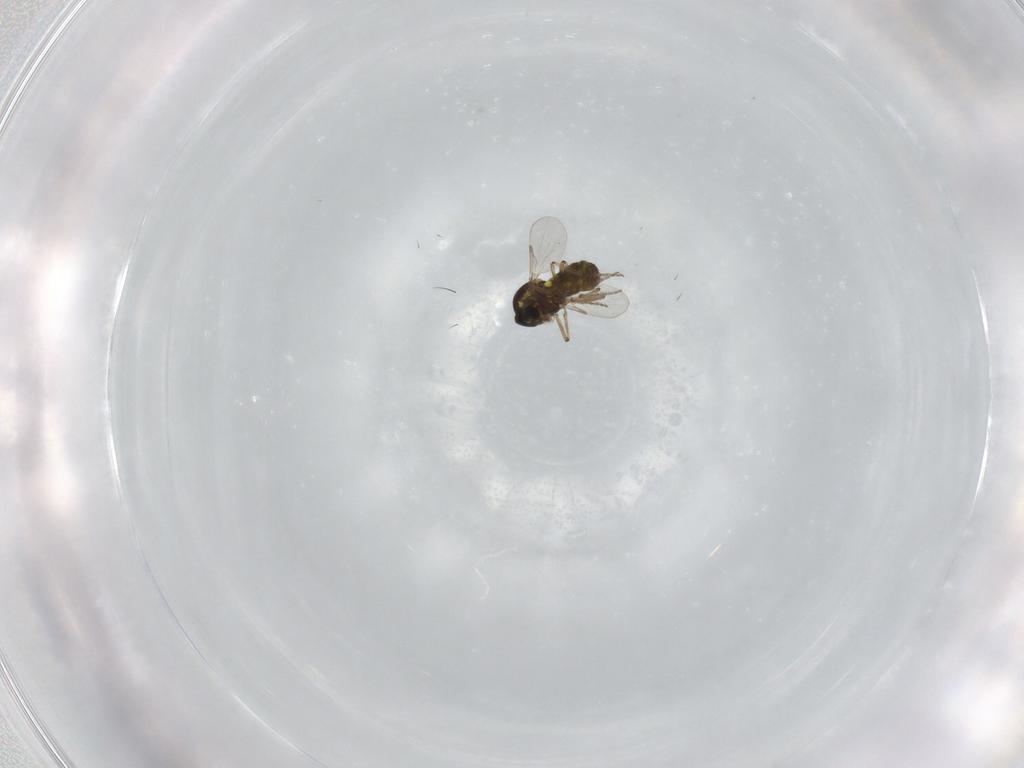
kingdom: Animalia
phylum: Arthropoda
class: Insecta
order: Diptera
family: Ceratopogonidae
